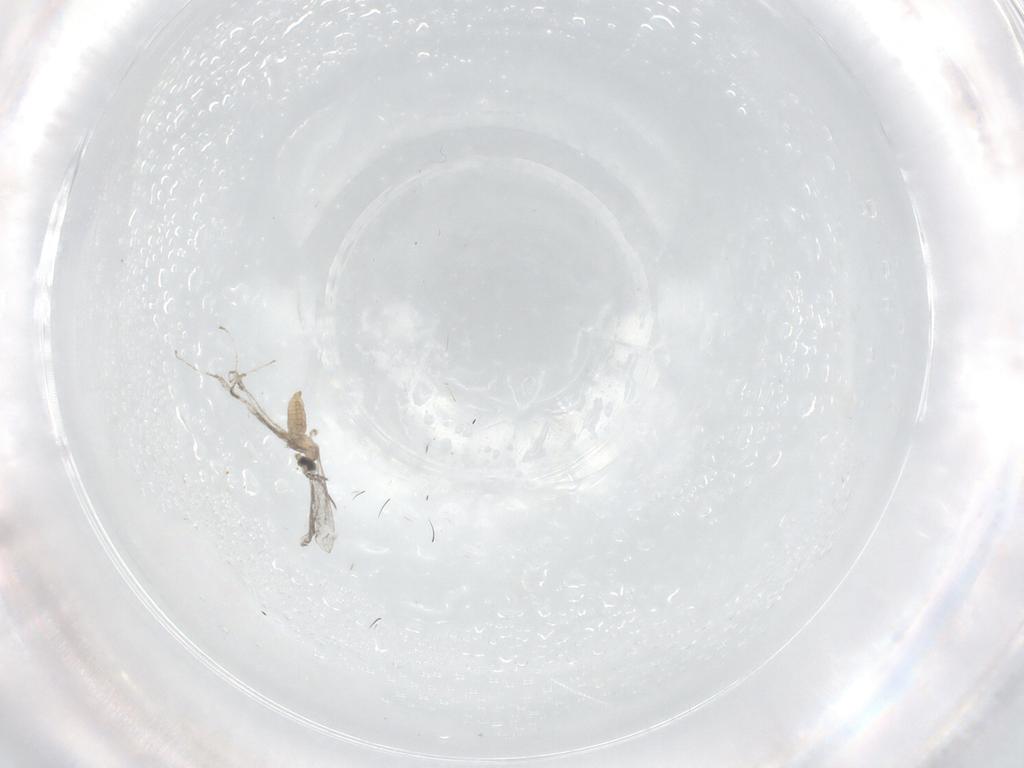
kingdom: Animalia
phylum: Arthropoda
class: Insecta
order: Diptera
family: Cecidomyiidae
